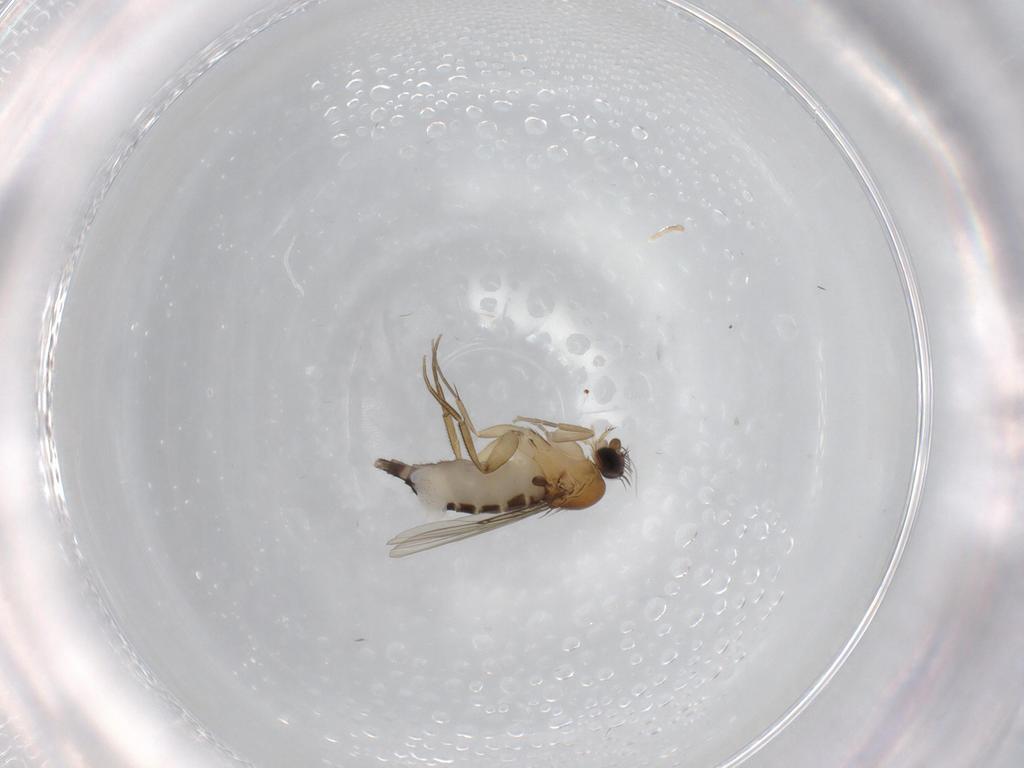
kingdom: Animalia
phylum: Arthropoda
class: Insecta
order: Diptera
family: Phoridae
